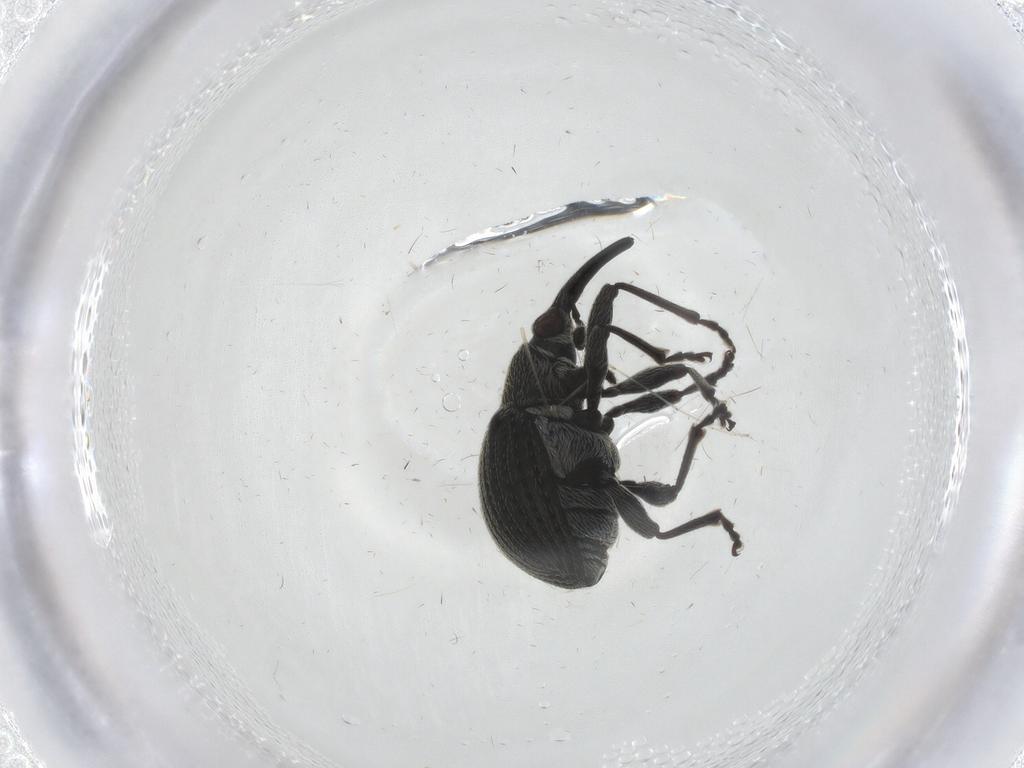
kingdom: Animalia
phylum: Arthropoda
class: Insecta
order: Coleoptera
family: Brentidae
